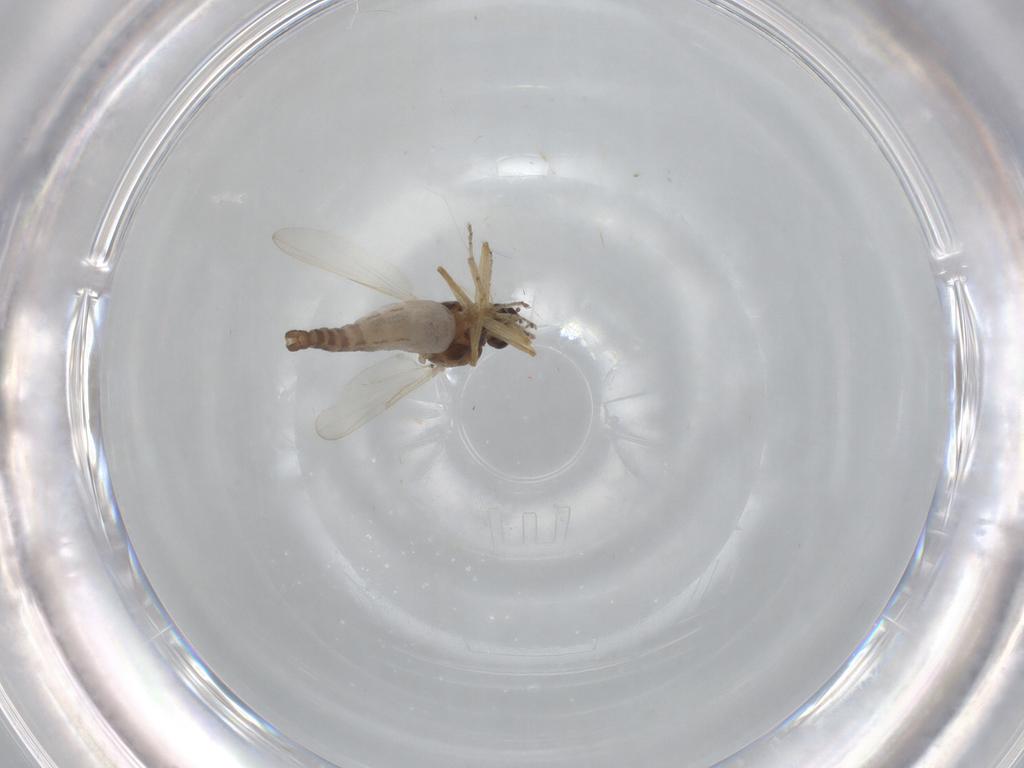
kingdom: Animalia
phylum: Arthropoda
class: Insecta
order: Diptera
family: Ceratopogonidae
